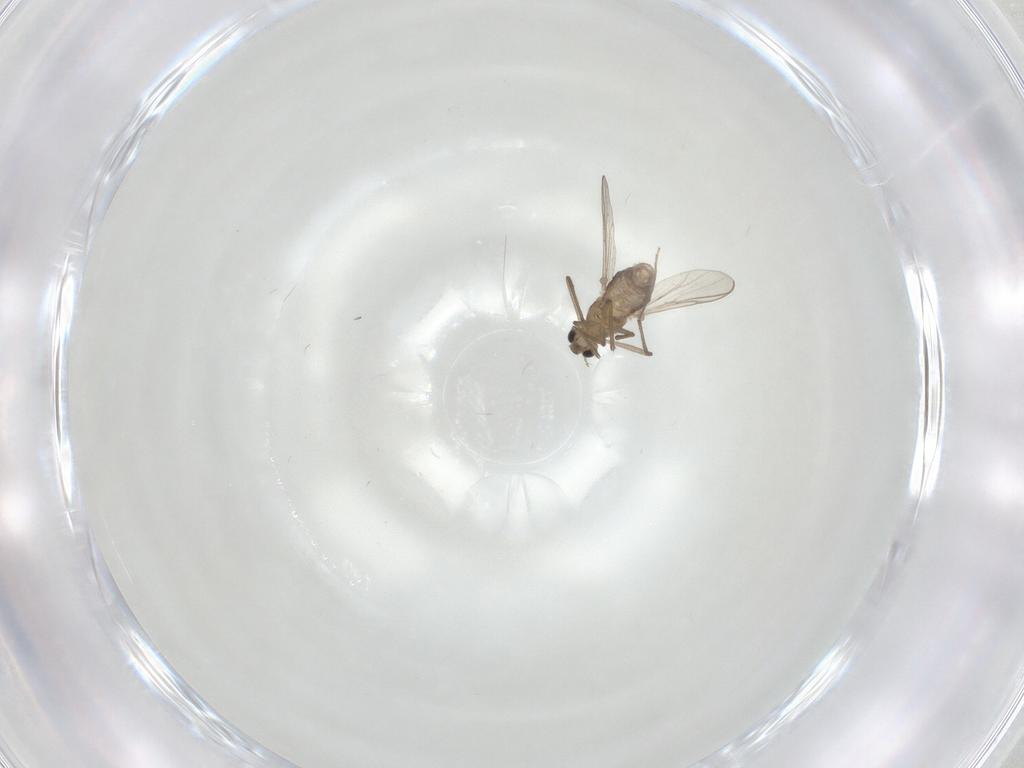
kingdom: Animalia
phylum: Arthropoda
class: Insecta
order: Diptera
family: Chironomidae
